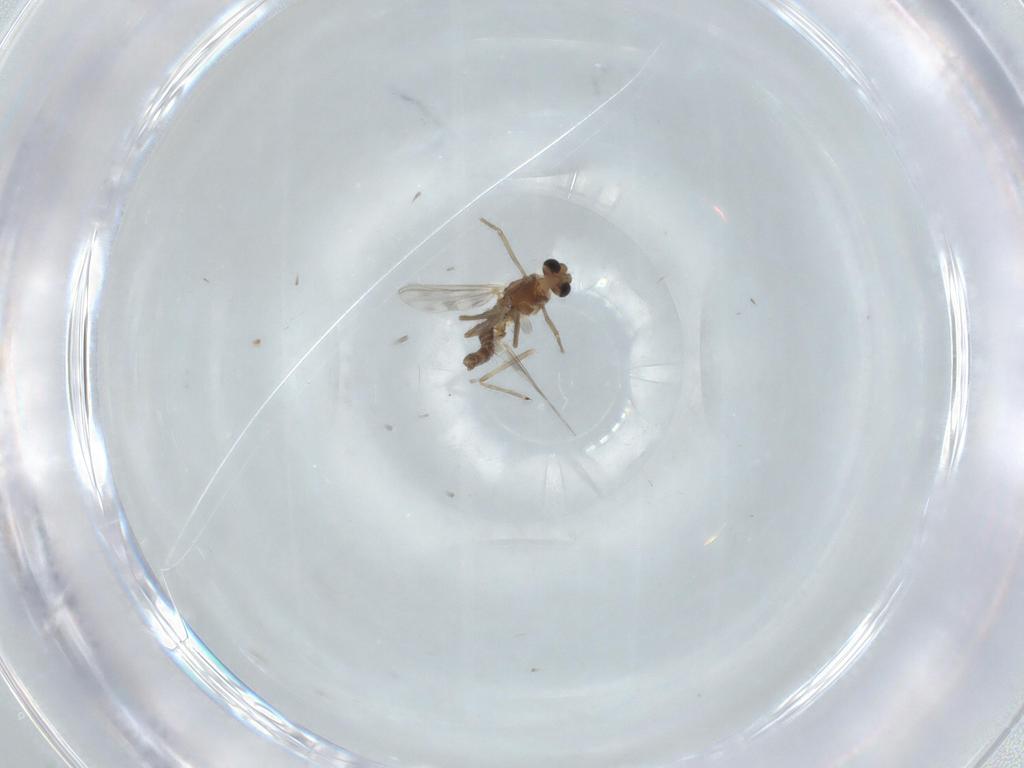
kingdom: Animalia
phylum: Arthropoda
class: Insecta
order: Diptera
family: Chironomidae
